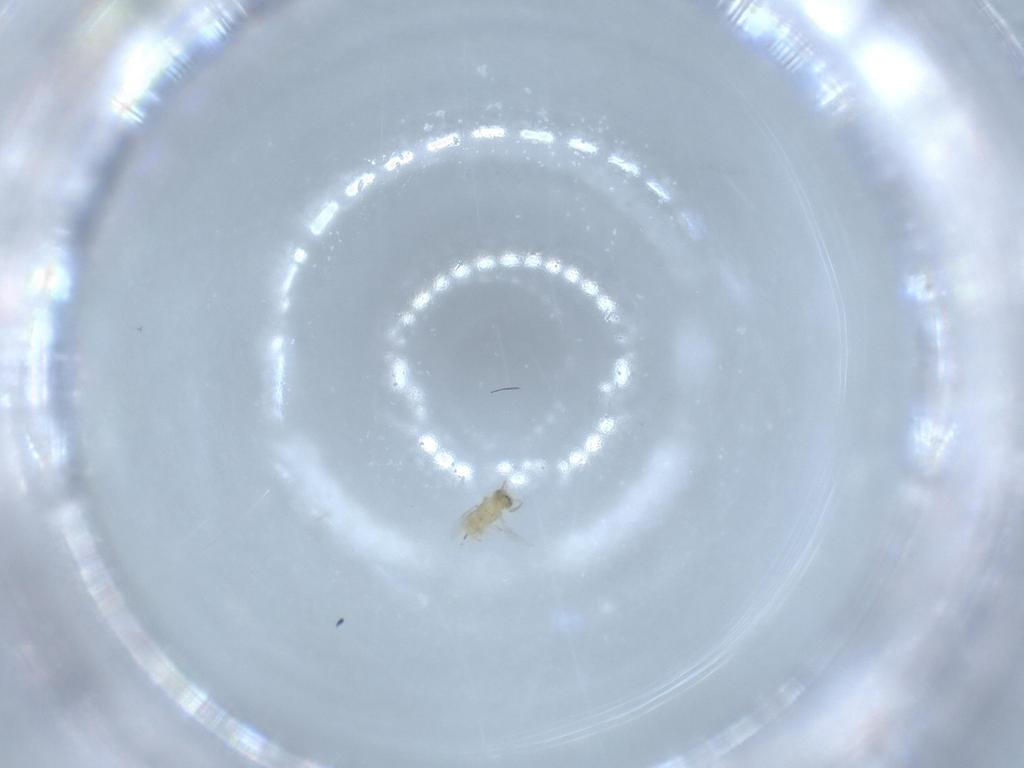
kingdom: Animalia
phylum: Arthropoda
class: Insecta
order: Hymenoptera
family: Encyrtidae
